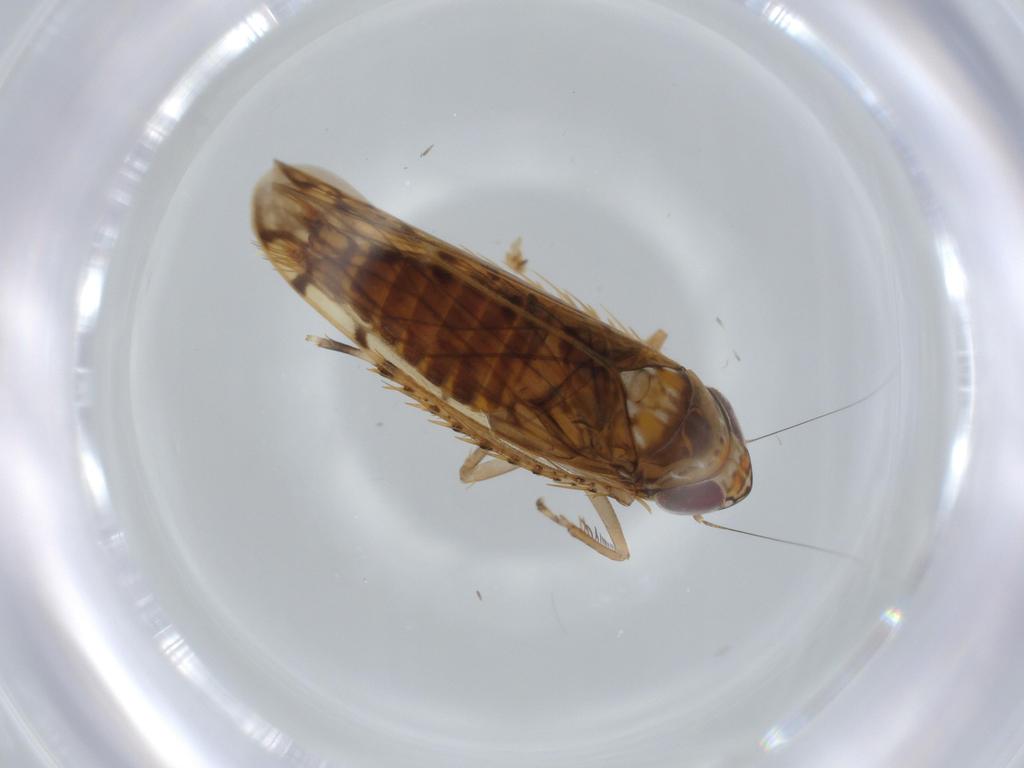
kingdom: Animalia
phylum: Arthropoda
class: Insecta
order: Hemiptera
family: Cicadellidae
